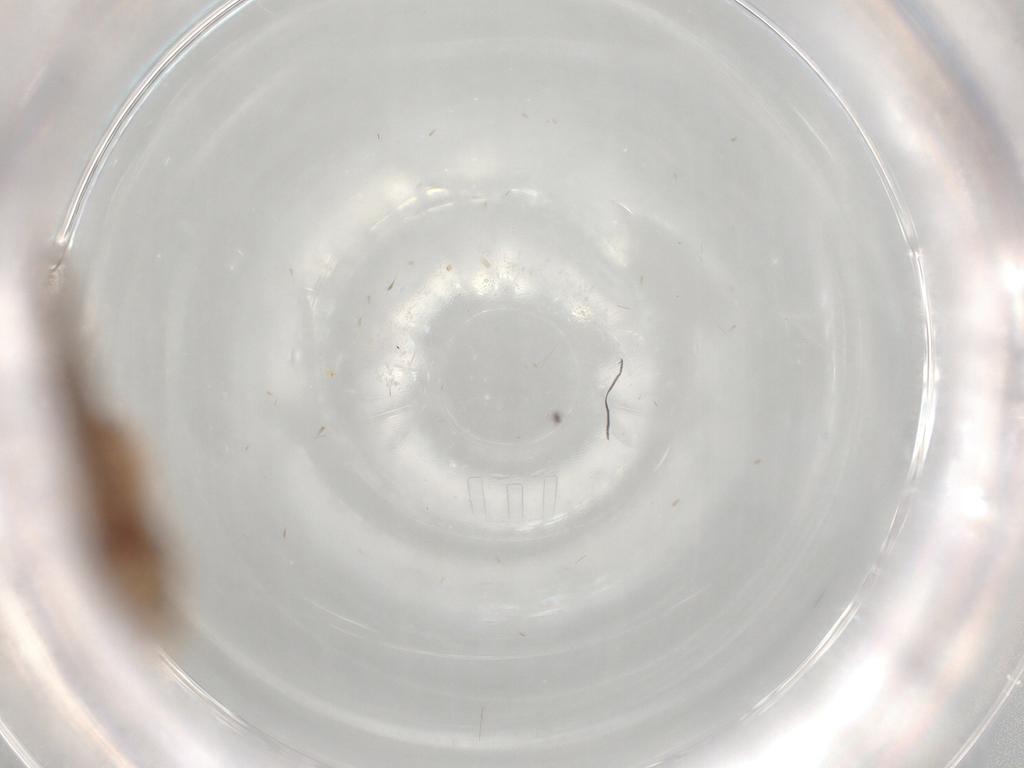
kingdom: Animalia
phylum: Arthropoda
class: Insecta
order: Lepidoptera
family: Cosmopterigidae
